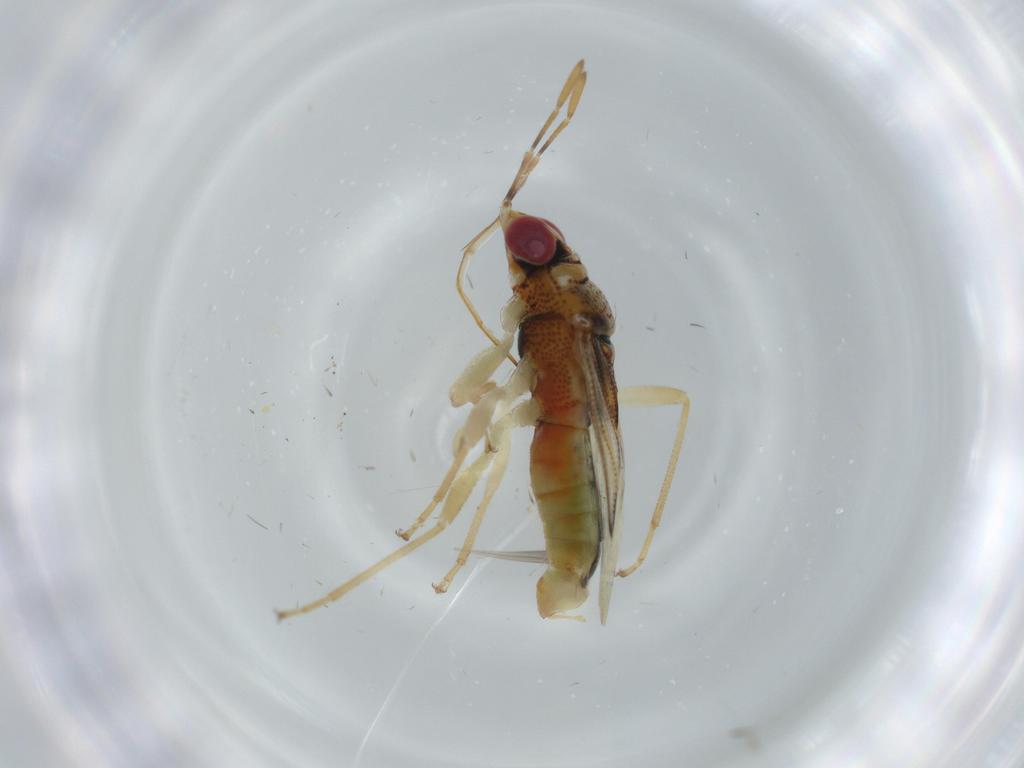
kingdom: Animalia
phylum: Arthropoda
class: Insecta
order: Hemiptera
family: Geocoridae
